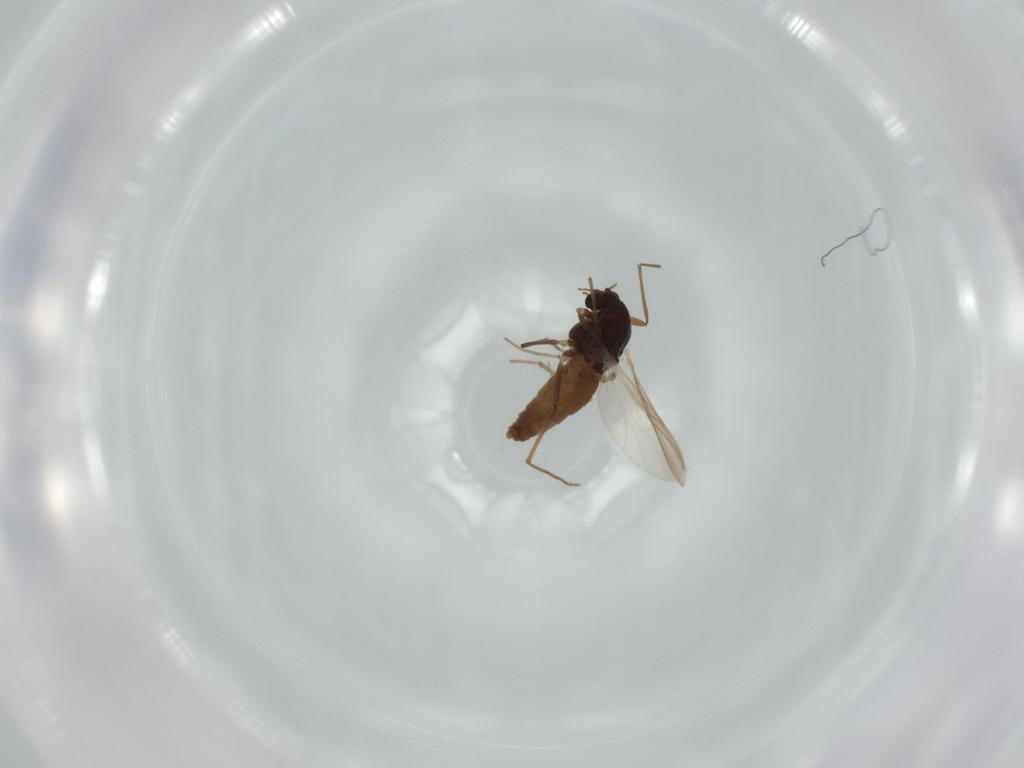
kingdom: Animalia
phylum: Arthropoda
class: Insecta
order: Diptera
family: Chironomidae
